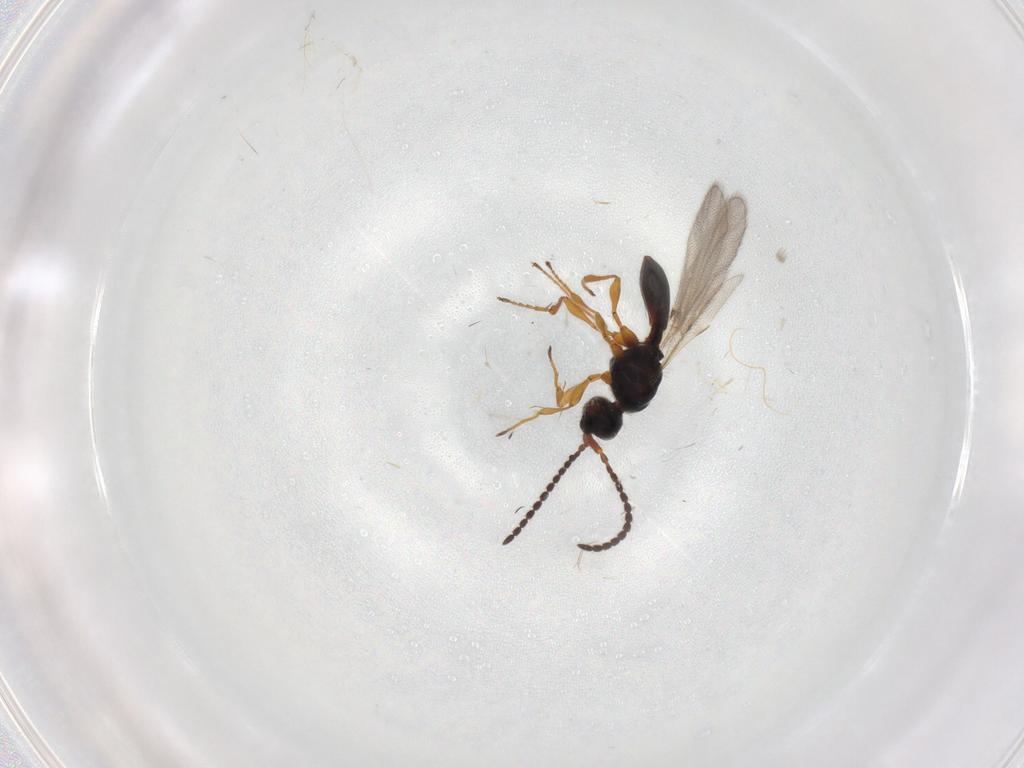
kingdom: Animalia
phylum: Arthropoda
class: Insecta
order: Hymenoptera
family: Diapriidae
